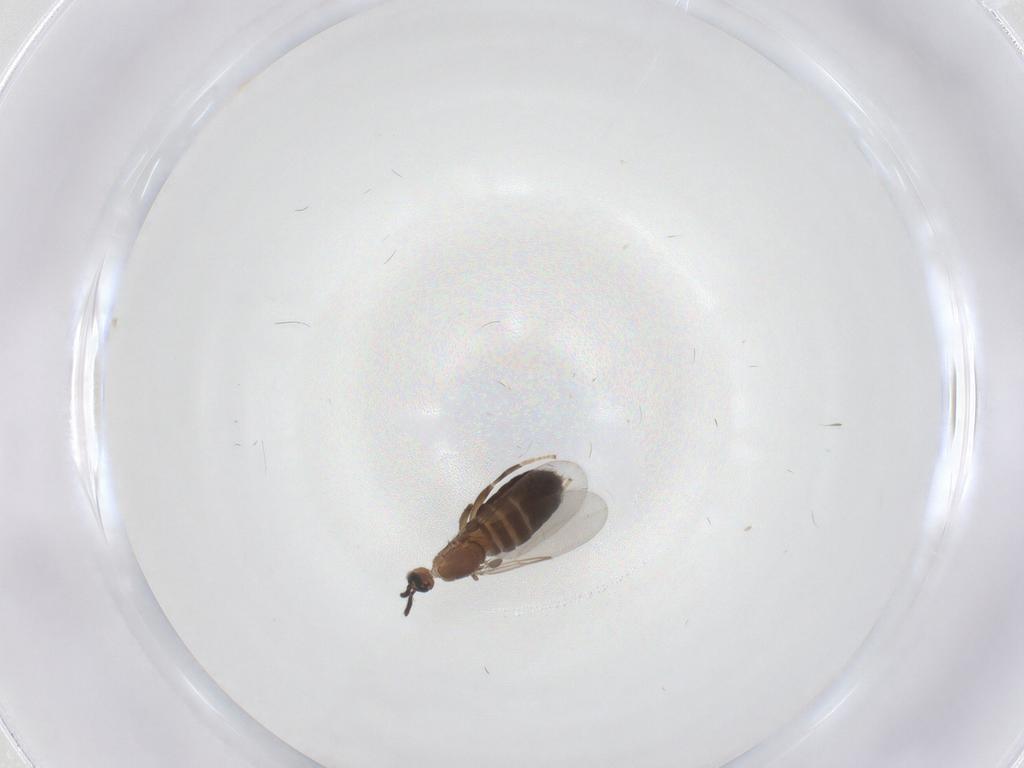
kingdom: Animalia
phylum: Arthropoda
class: Insecta
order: Diptera
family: Scatopsidae
